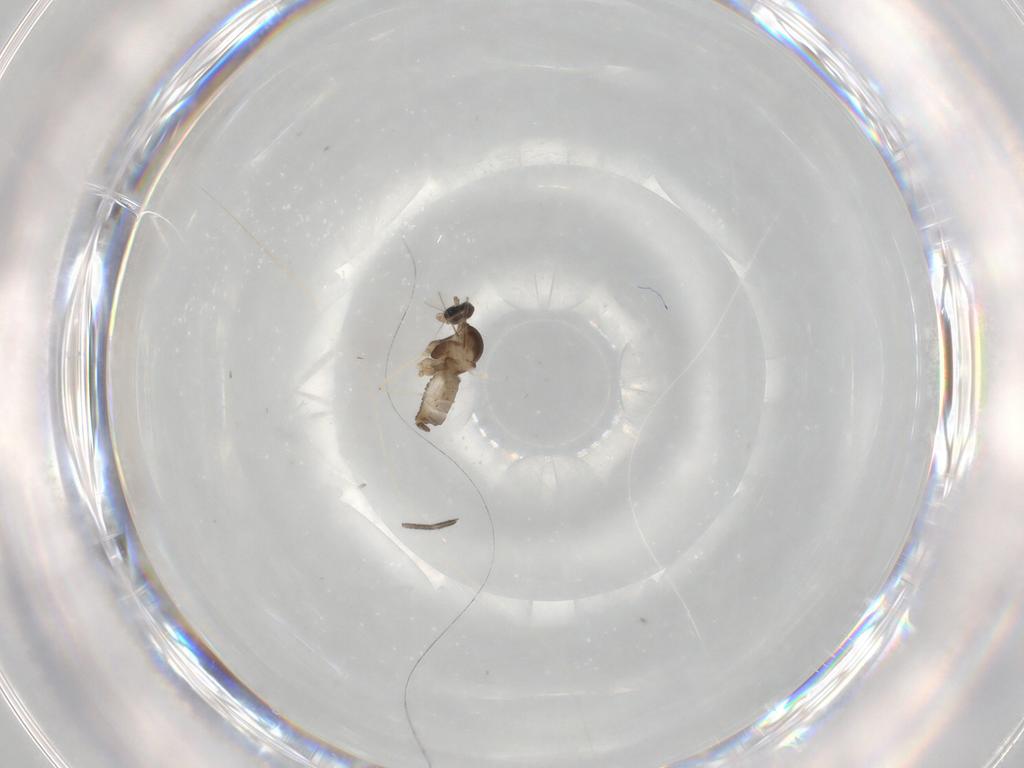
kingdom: Animalia
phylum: Arthropoda
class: Insecta
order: Diptera
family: Cecidomyiidae
